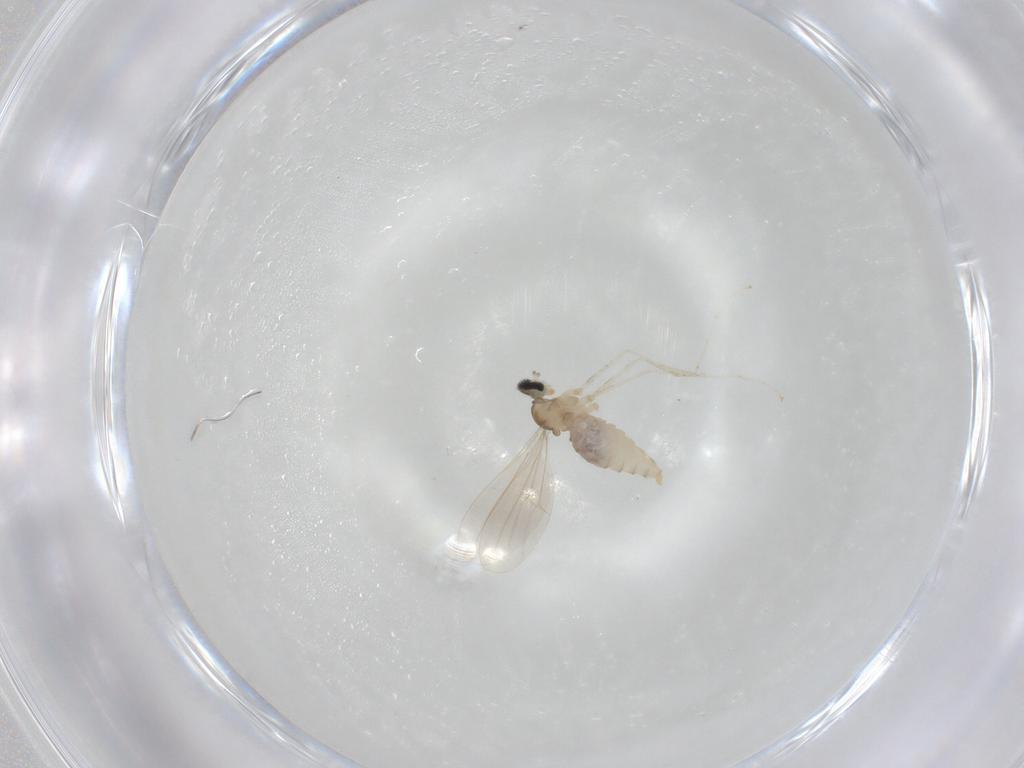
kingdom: Animalia
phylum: Arthropoda
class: Insecta
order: Diptera
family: Cecidomyiidae
